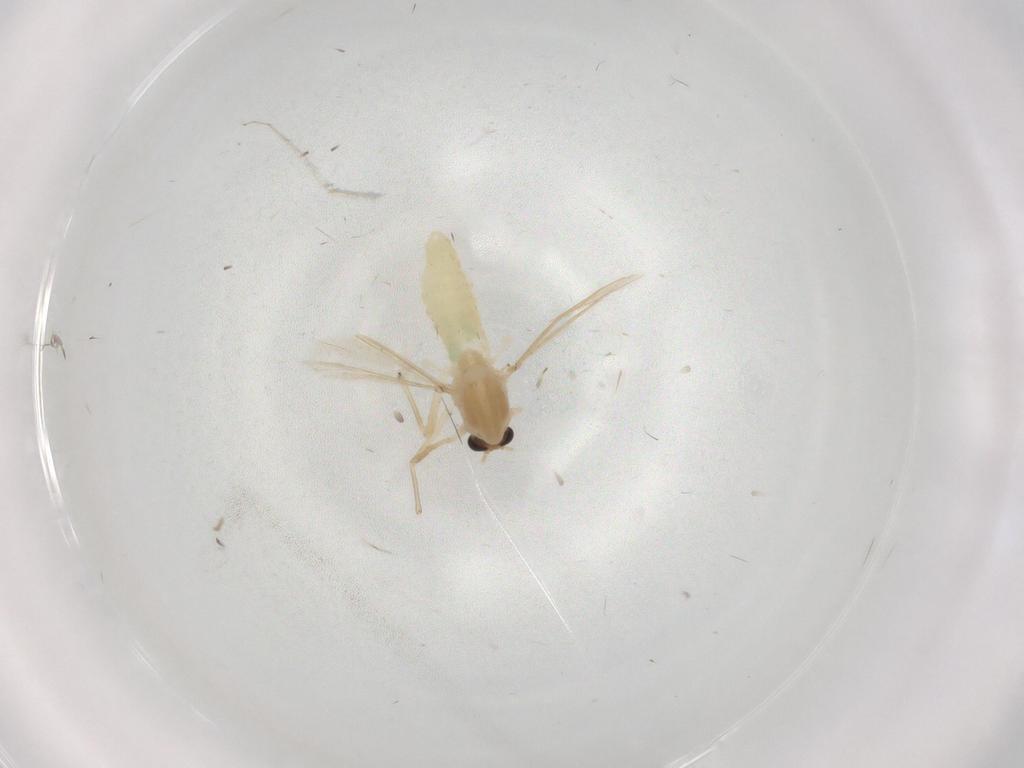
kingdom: Animalia
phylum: Arthropoda
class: Insecta
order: Diptera
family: Chironomidae
